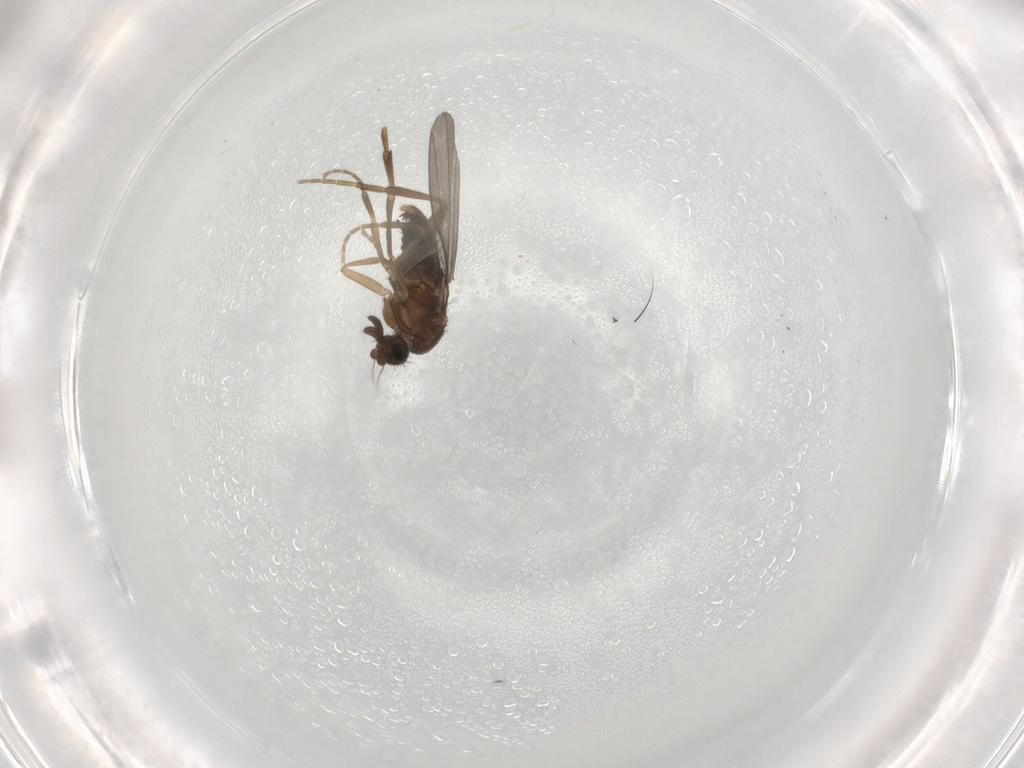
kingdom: Animalia
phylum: Arthropoda
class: Insecta
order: Diptera
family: Phoridae
